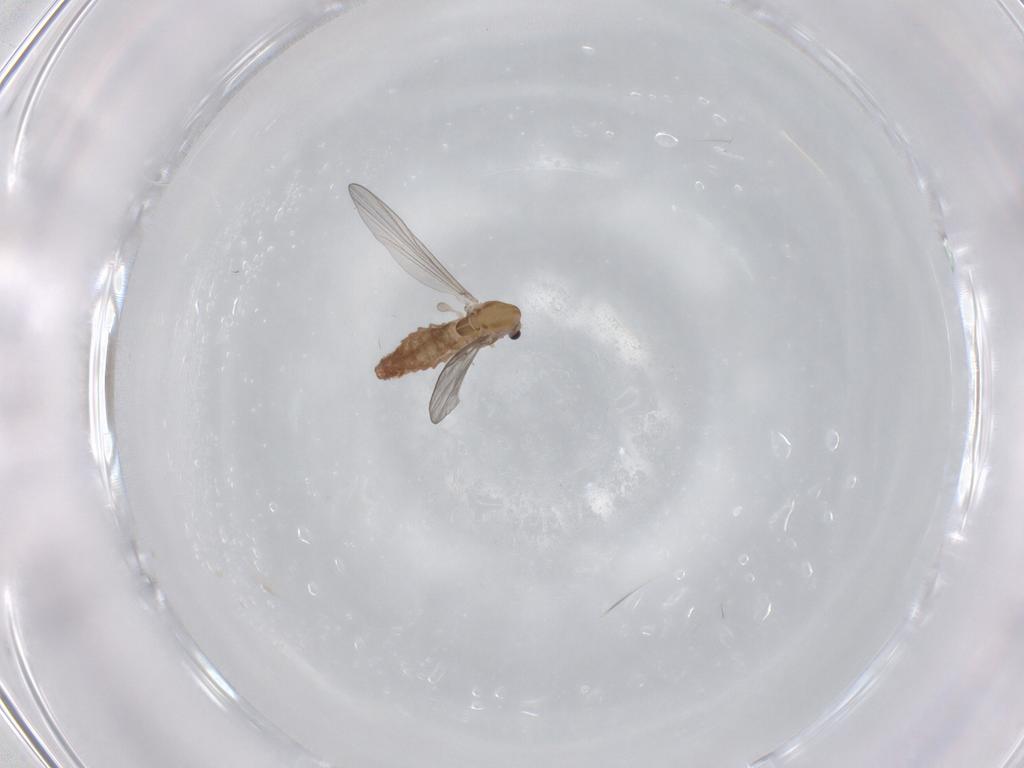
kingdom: Animalia
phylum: Arthropoda
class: Insecta
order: Diptera
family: Chironomidae
